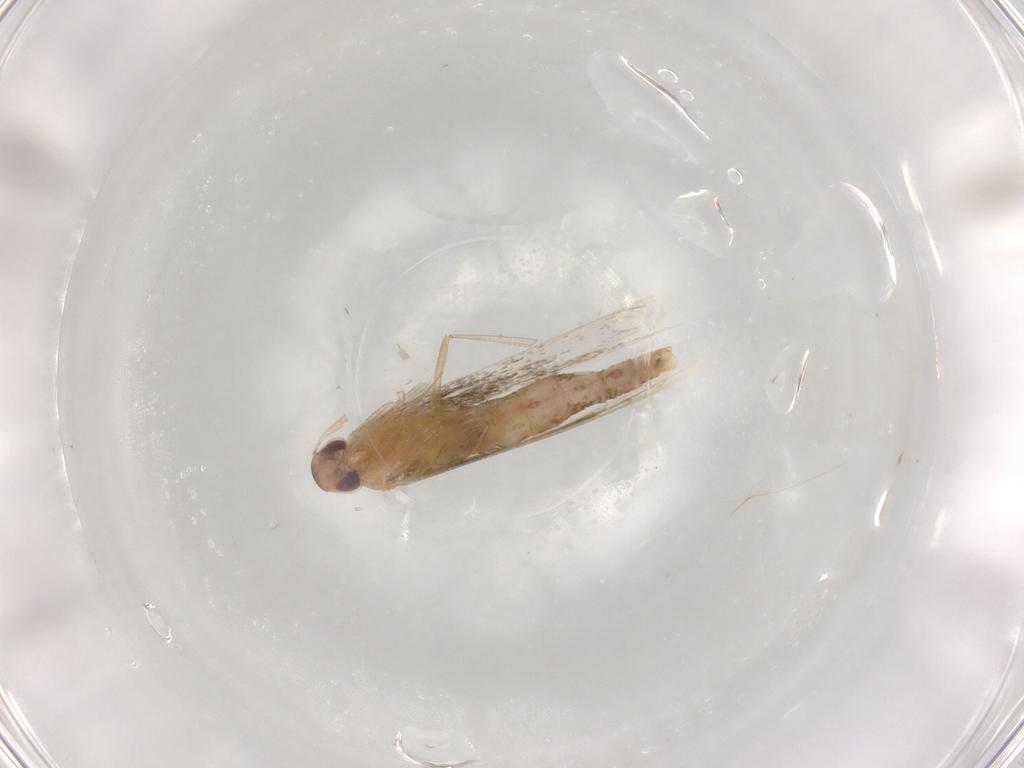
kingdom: Animalia
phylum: Arthropoda
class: Insecta
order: Lepidoptera
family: Cosmopterigidae
